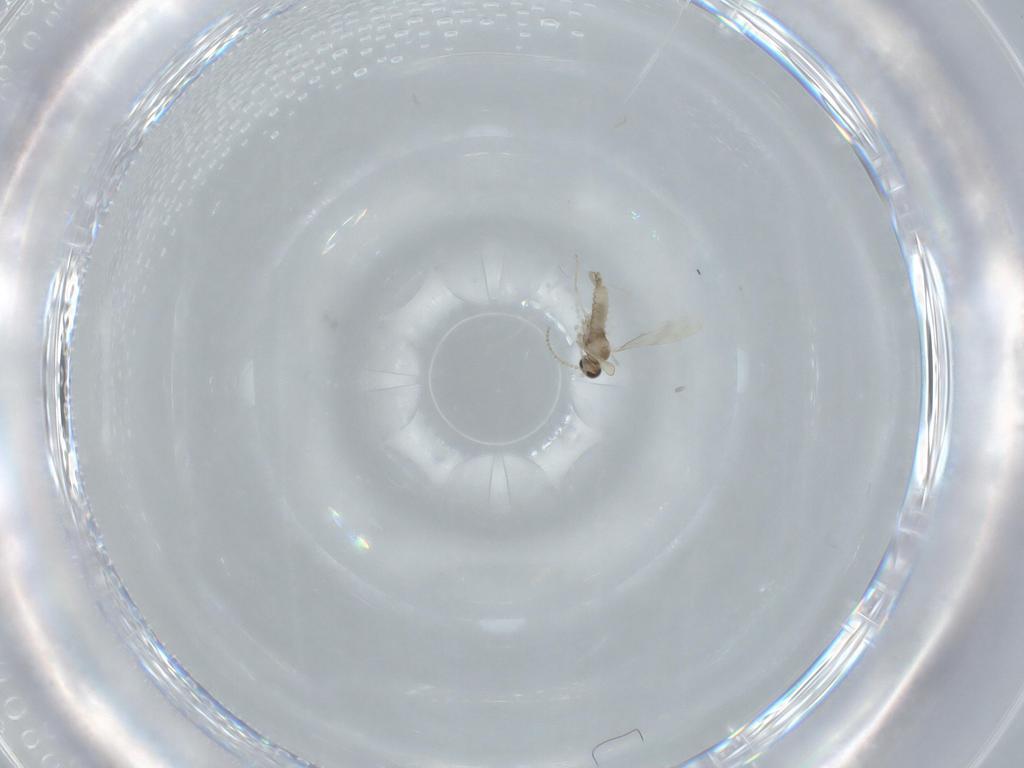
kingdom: Animalia
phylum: Arthropoda
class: Insecta
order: Diptera
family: Cecidomyiidae
